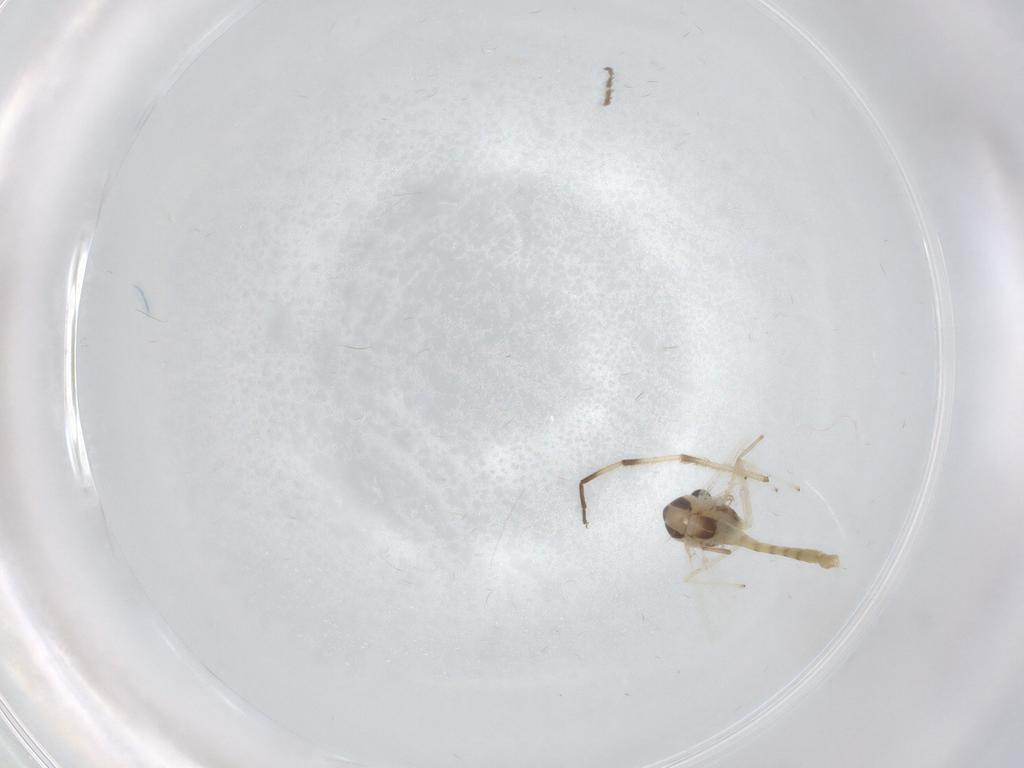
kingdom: Animalia
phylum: Arthropoda
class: Insecta
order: Diptera
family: Chironomidae
